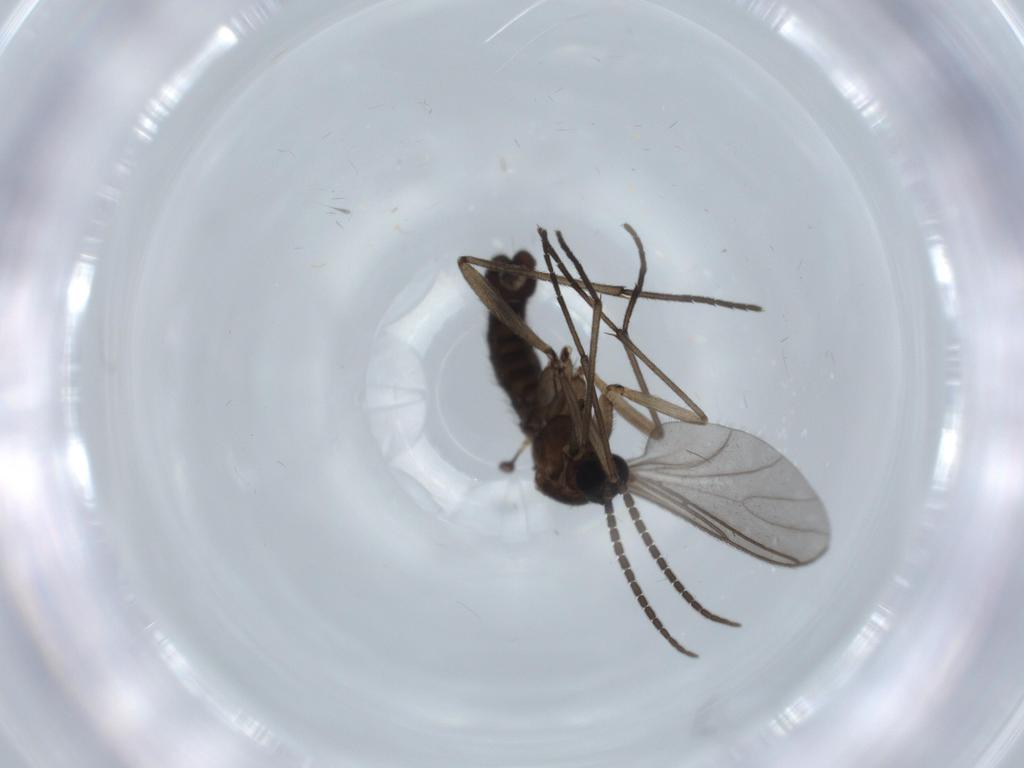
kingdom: Animalia
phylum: Arthropoda
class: Insecta
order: Diptera
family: Sciaridae
